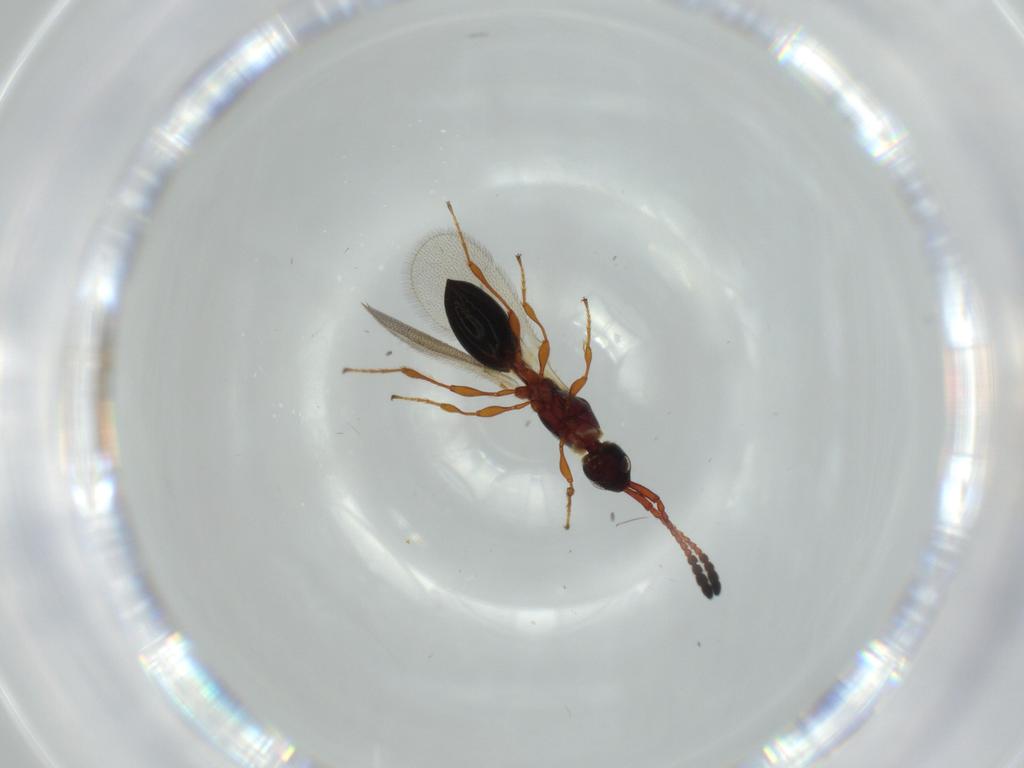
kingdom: Animalia
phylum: Arthropoda
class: Insecta
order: Hymenoptera
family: Diapriidae
